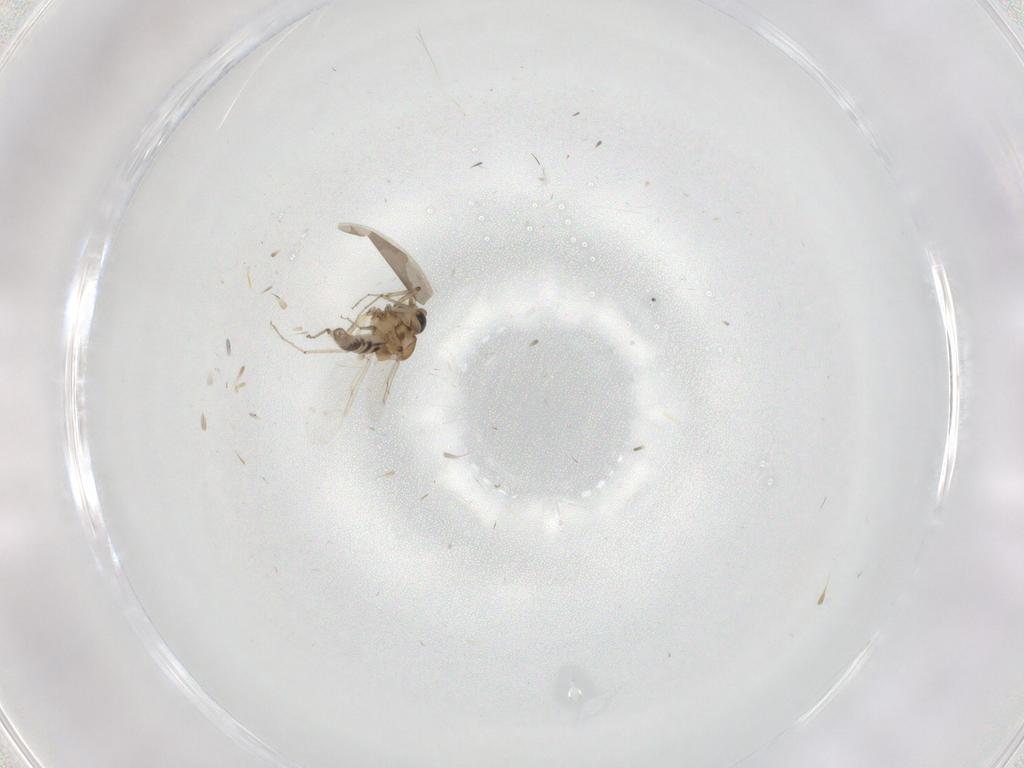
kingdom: Animalia
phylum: Arthropoda
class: Insecta
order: Diptera
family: Ceratopogonidae
